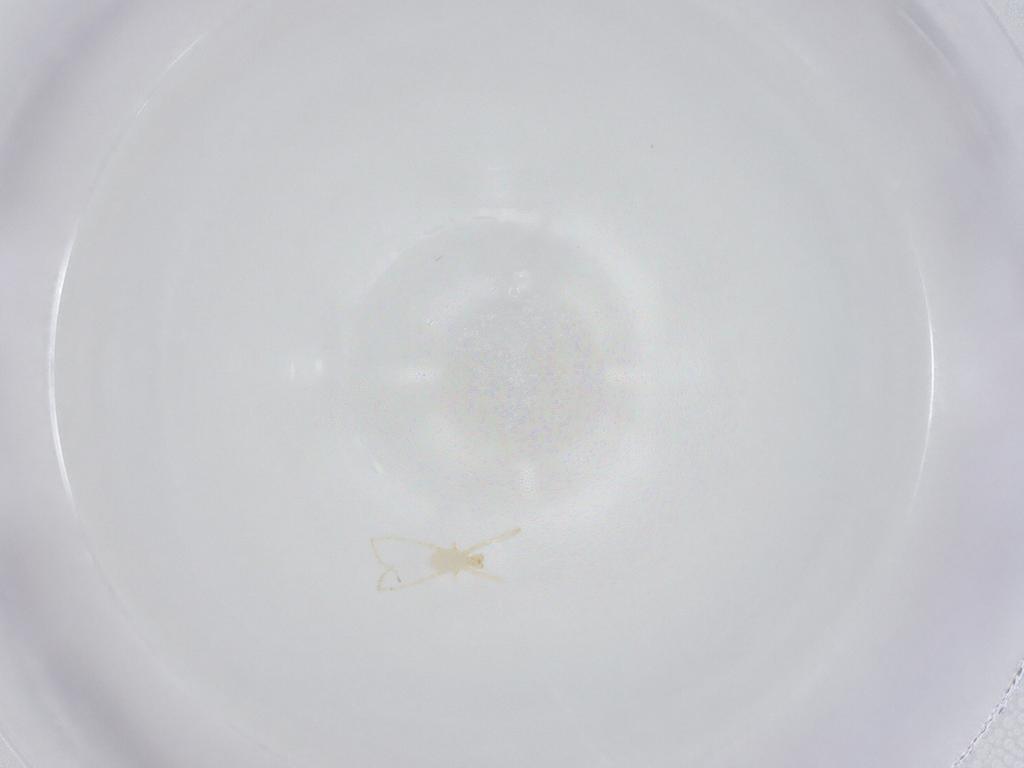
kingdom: Animalia
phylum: Arthropoda
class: Arachnida
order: Trombidiformes
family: Erythraeidae
